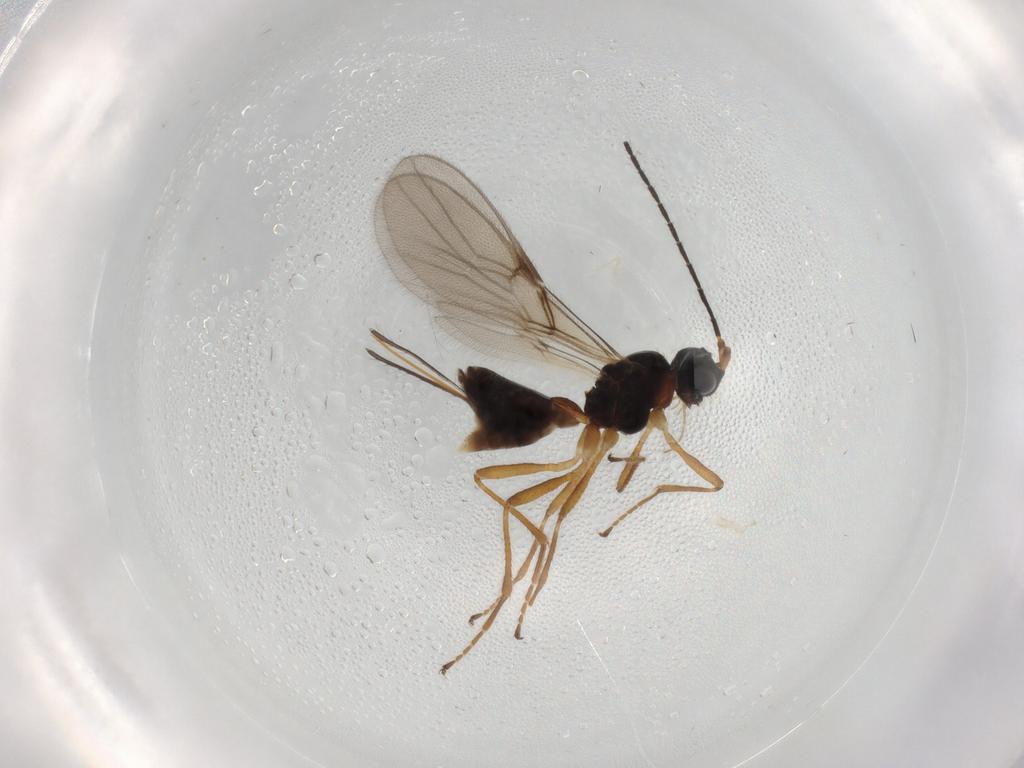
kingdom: Animalia
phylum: Arthropoda
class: Insecta
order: Hymenoptera
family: Braconidae
